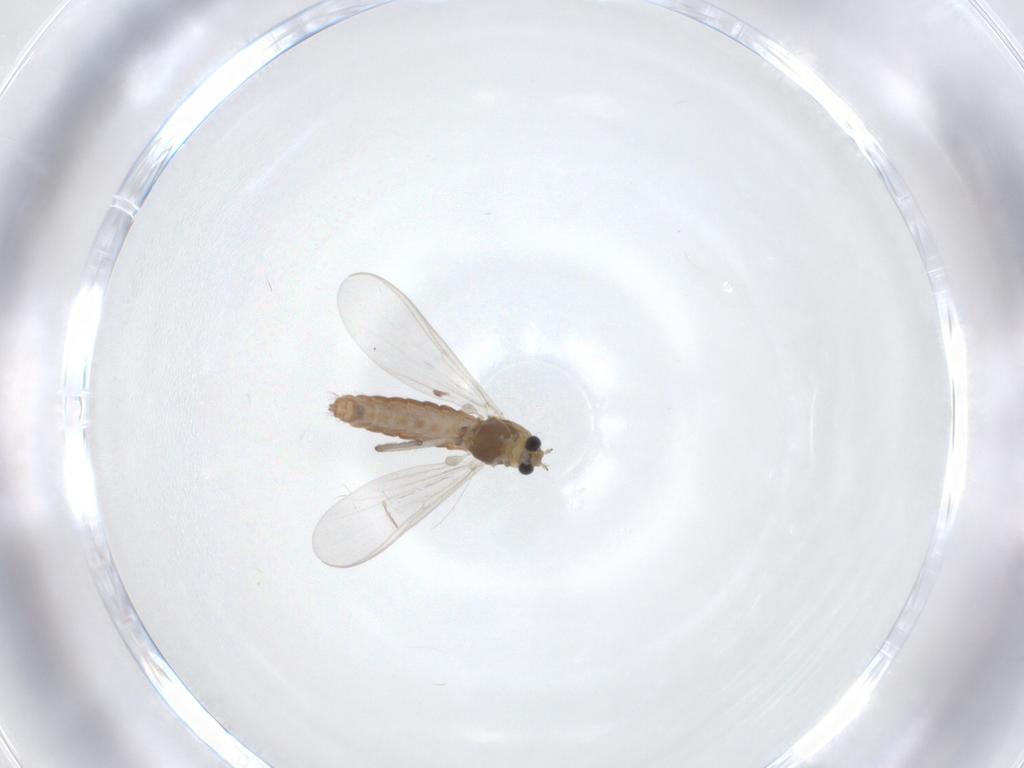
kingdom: Animalia
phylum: Arthropoda
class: Insecta
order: Diptera
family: Chironomidae
